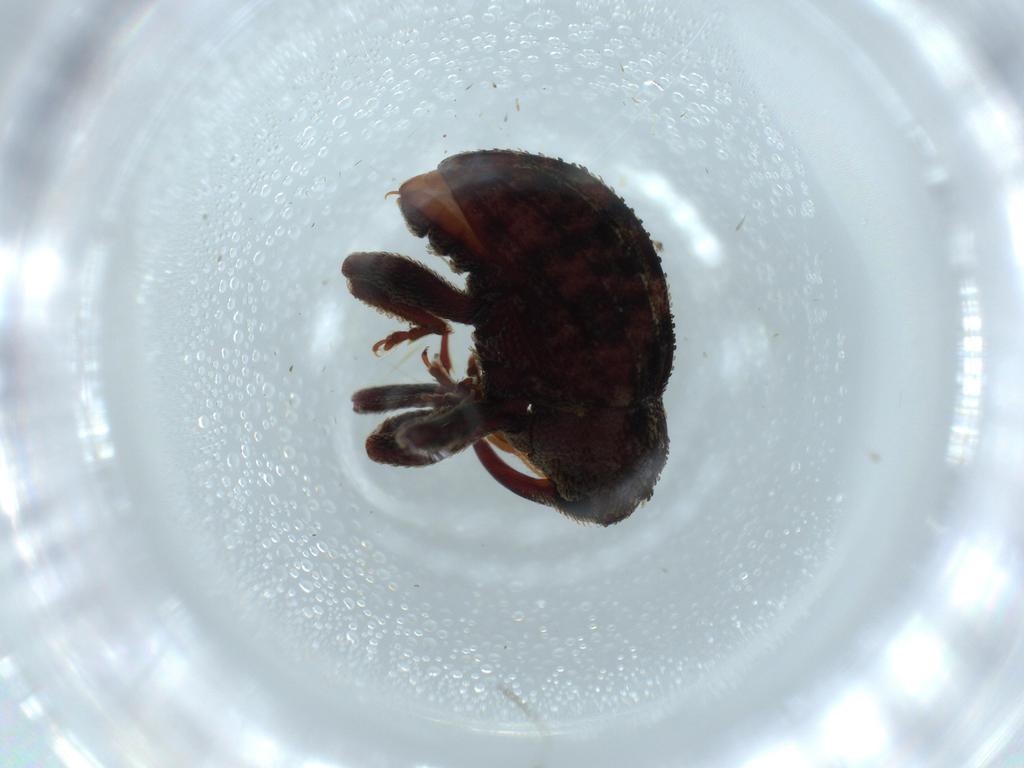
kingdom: Animalia
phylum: Arthropoda
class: Insecta
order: Coleoptera
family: Curculionidae
